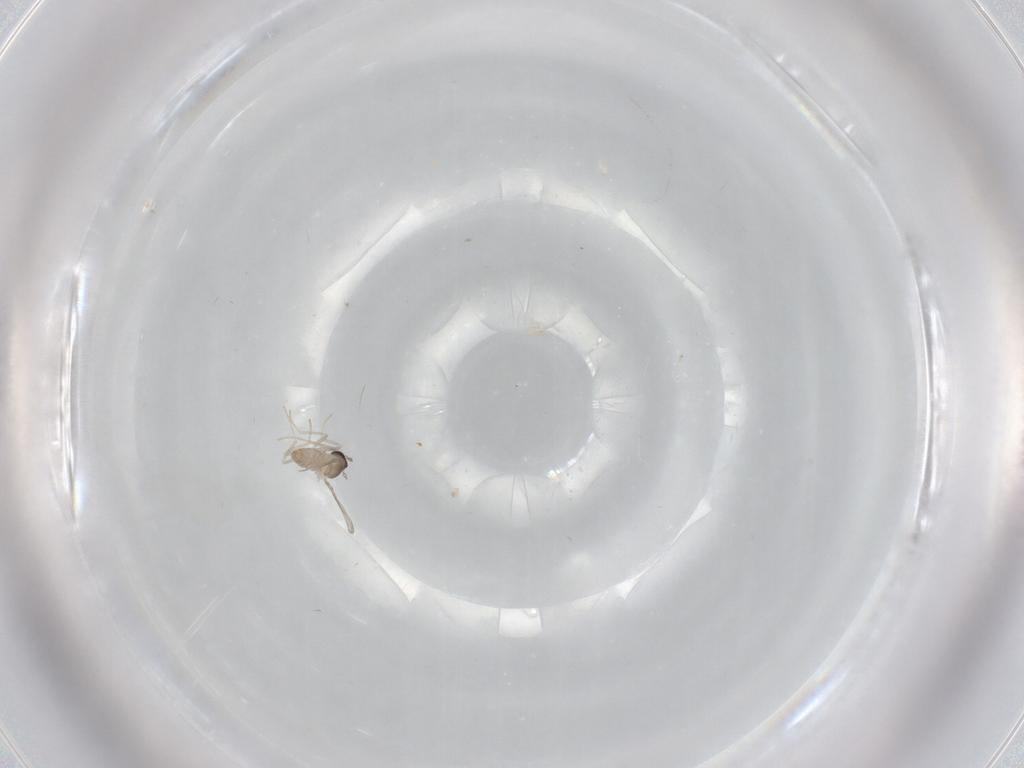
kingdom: Animalia
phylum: Arthropoda
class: Insecta
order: Diptera
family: Cecidomyiidae
